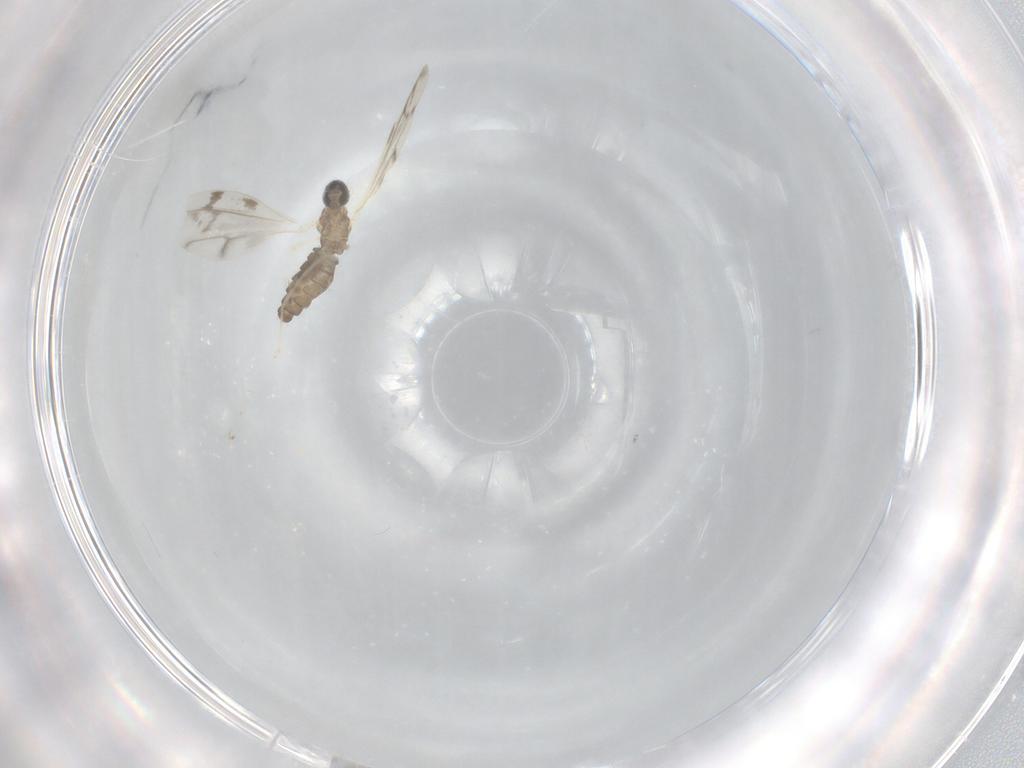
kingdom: Animalia
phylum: Arthropoda
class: Insecta
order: Diptera
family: Cecidomyiidae
